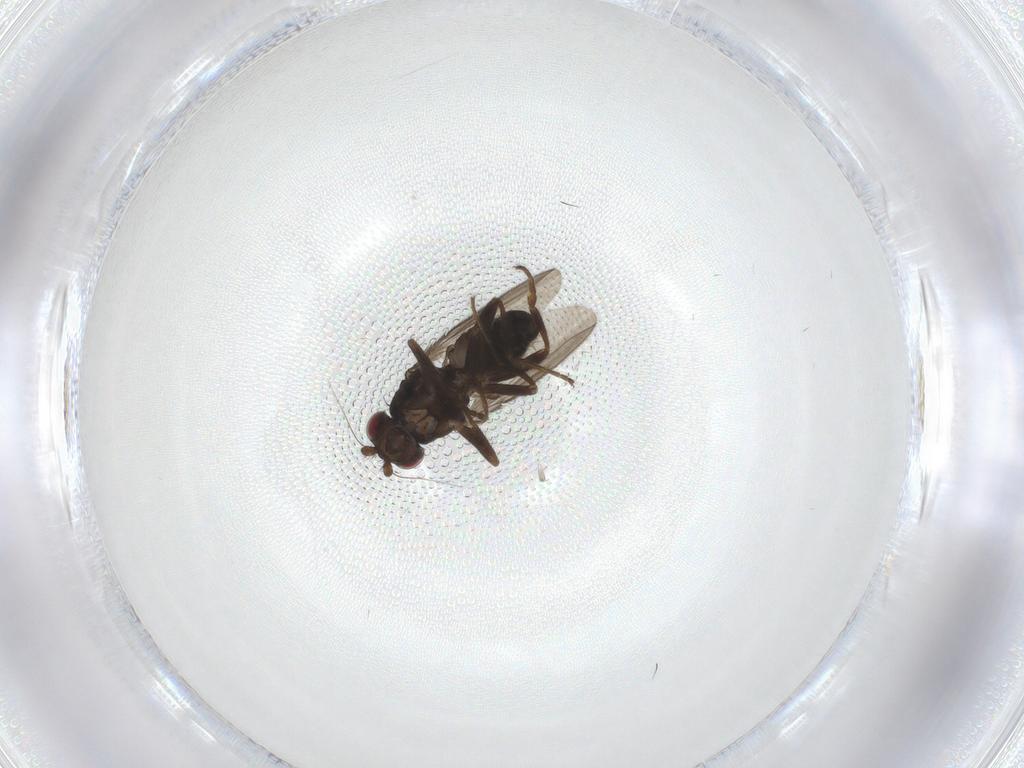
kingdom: Animalia
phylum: Arthropoda
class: Insecta
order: Diptera
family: Sphaeroceridae
